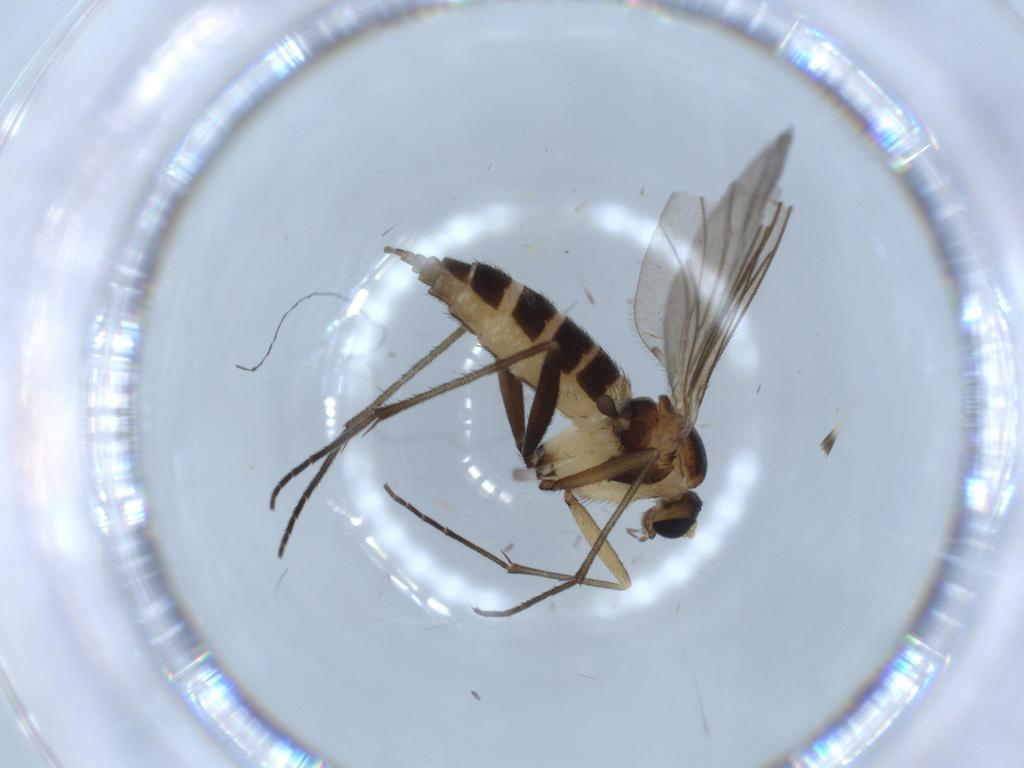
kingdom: Animalia
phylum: Arthropoda
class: Insecta
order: Diptera
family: Sciaridae
